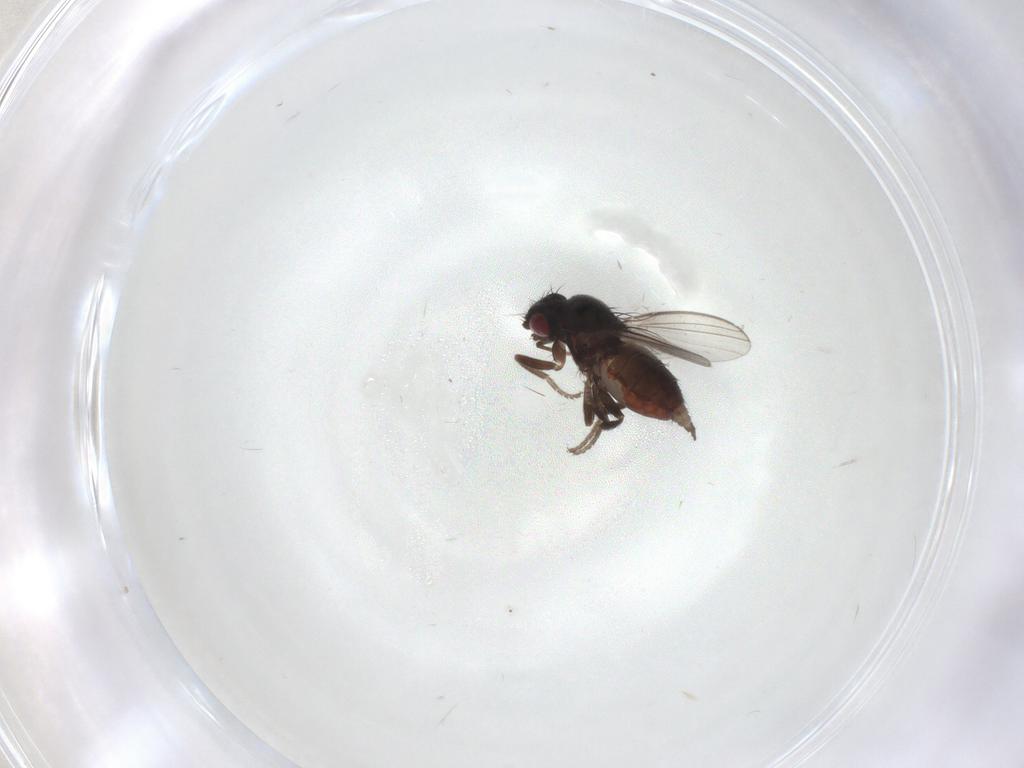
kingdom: Animalia
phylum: Arthropoda
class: Insecta
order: Diptera
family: Milichiidae
